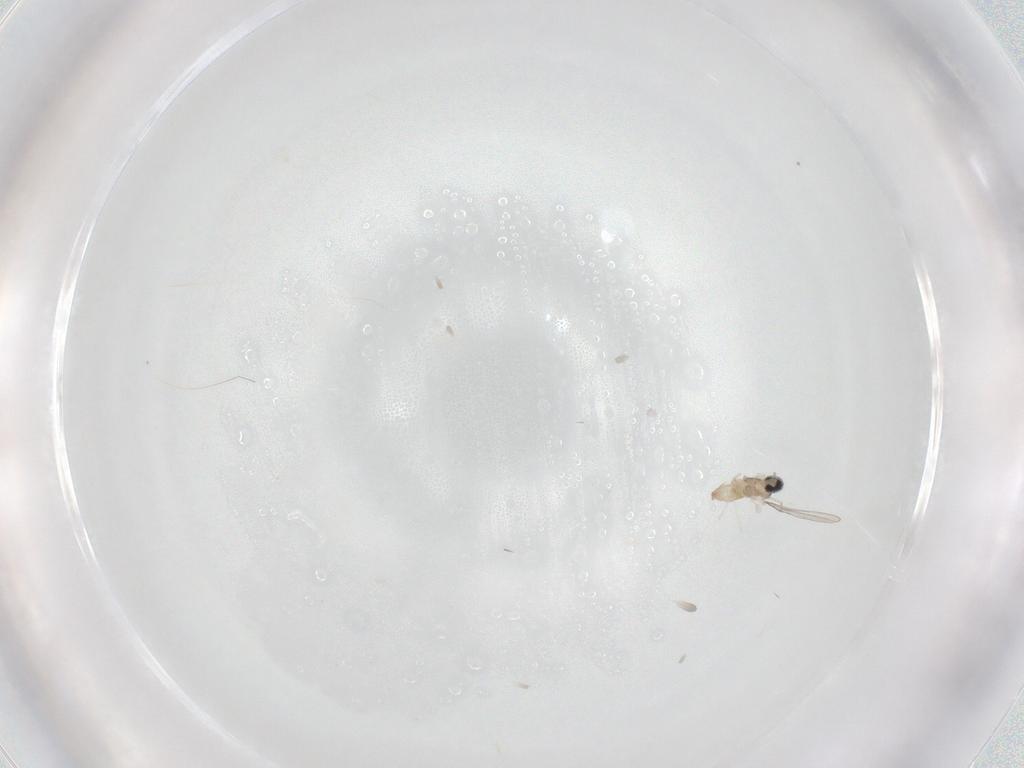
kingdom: Animalia
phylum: Arthropoda
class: Insecta
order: Diptera
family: Cecidomyiidae
